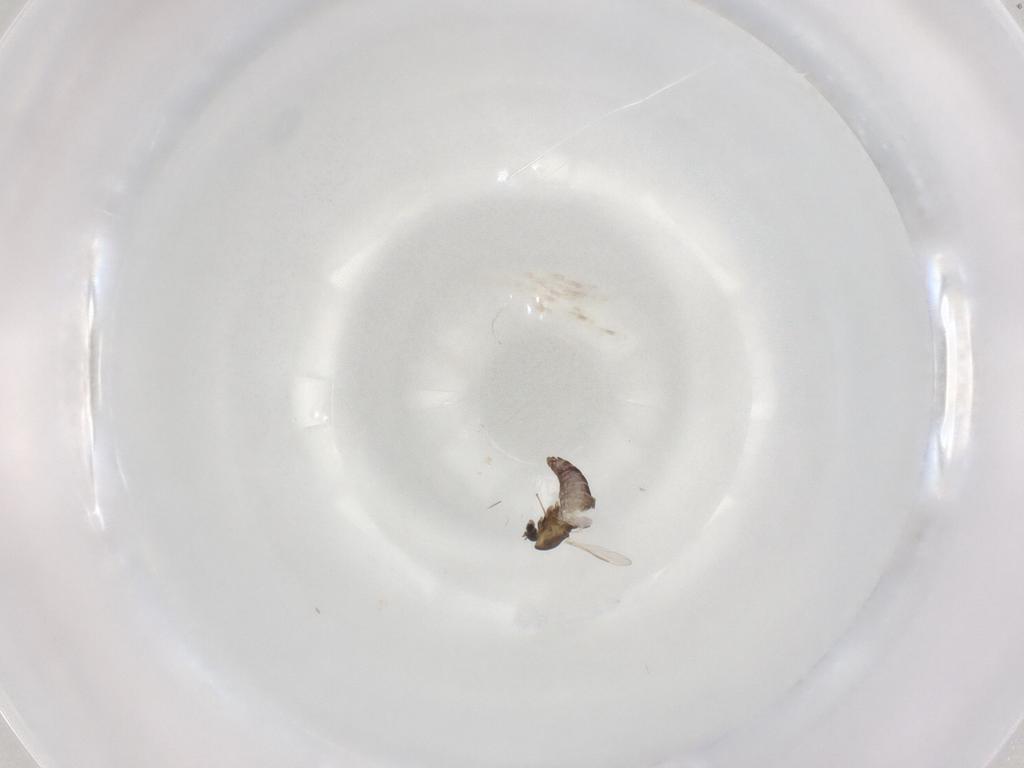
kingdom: Animalia
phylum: Arthropoda
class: Insecta
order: Diptera
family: Chironomidae
